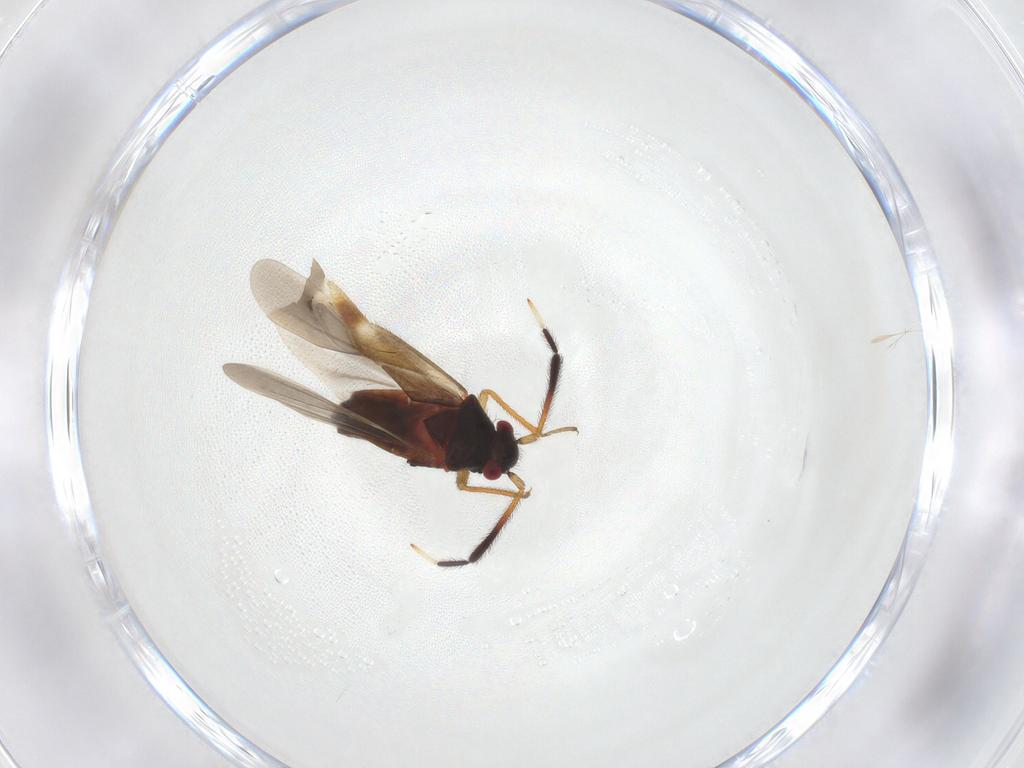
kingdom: Animalia
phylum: Arthropoda
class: Insecta
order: Hemiptera
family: Miridae
